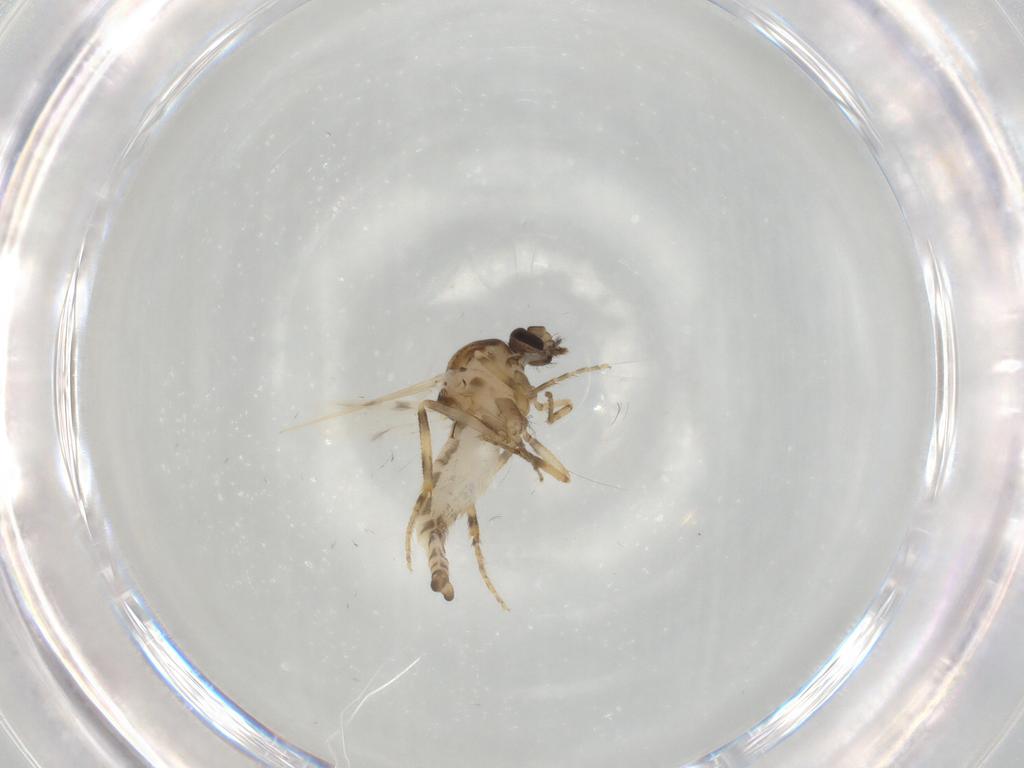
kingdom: Animalia
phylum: Arthropoda
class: Insecta
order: Diptera
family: Ceratopogonidae
